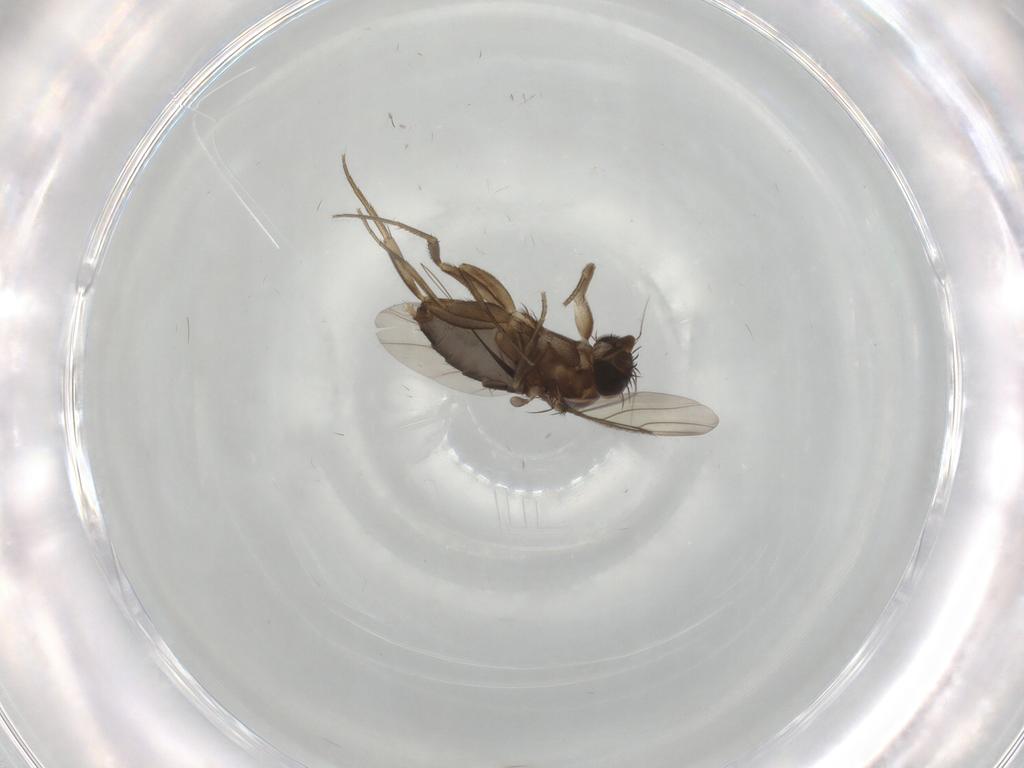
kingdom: Animalia
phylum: Arthropoda
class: Insecta
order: Diptera
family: Phoridae
